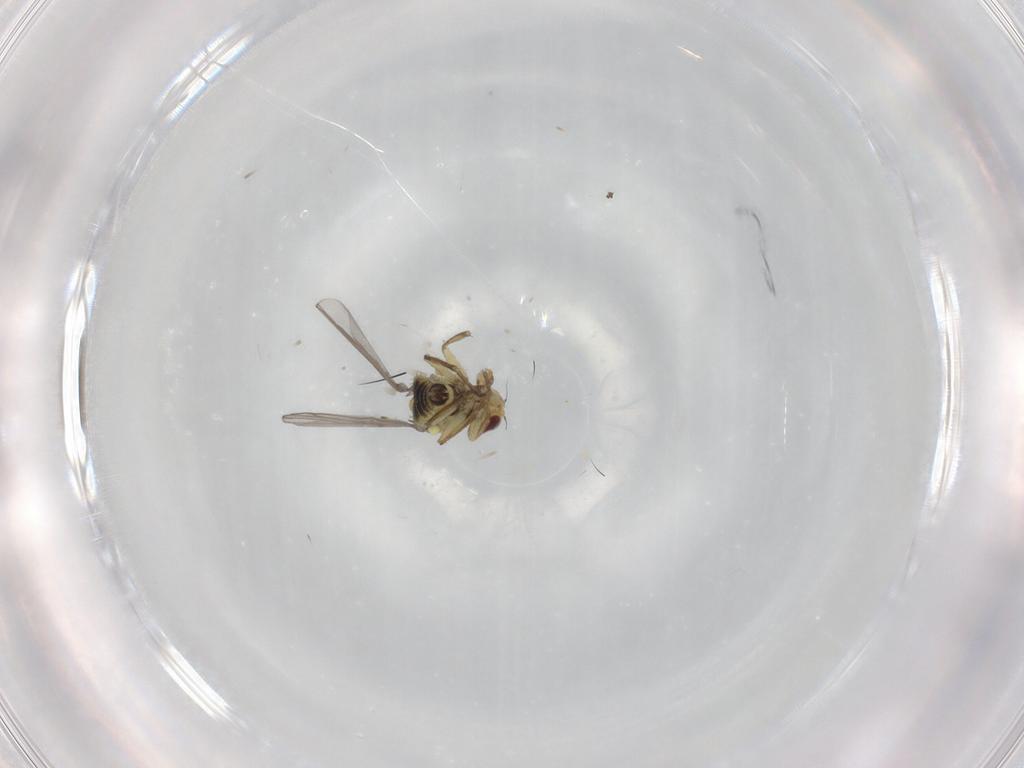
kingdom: Animalia
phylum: Arthropoda
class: Insecta
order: Diptera
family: Agromyzidae
